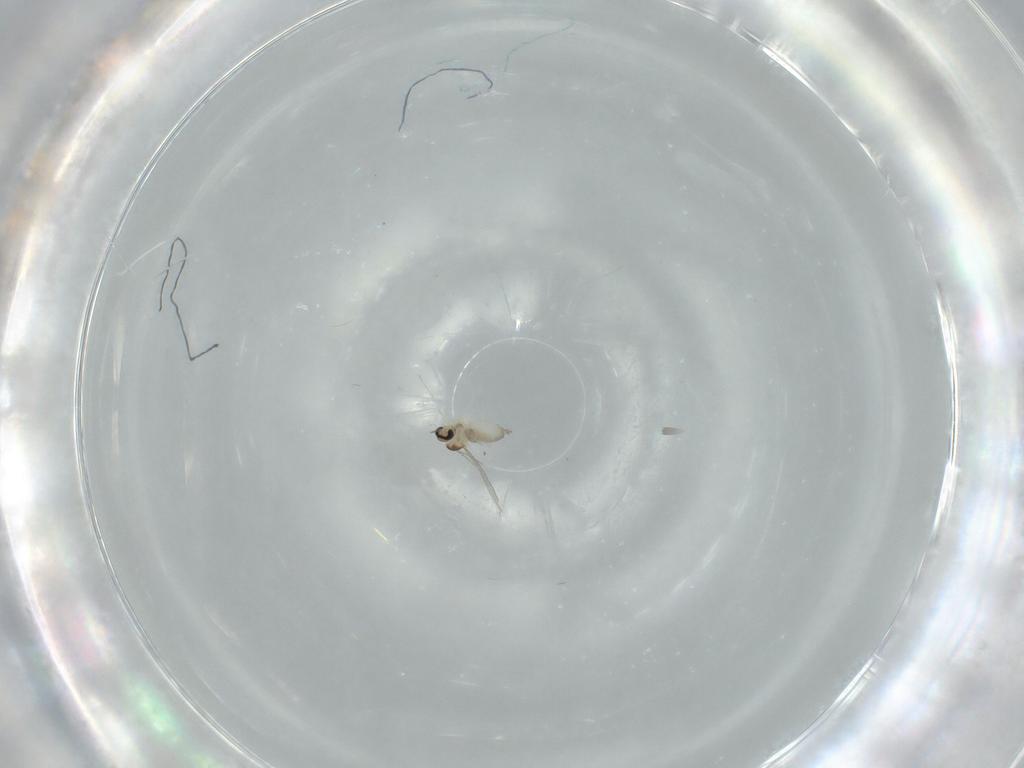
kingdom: Animalia
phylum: Arthropoda
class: Insecta
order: Diptera
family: Milichiidae
